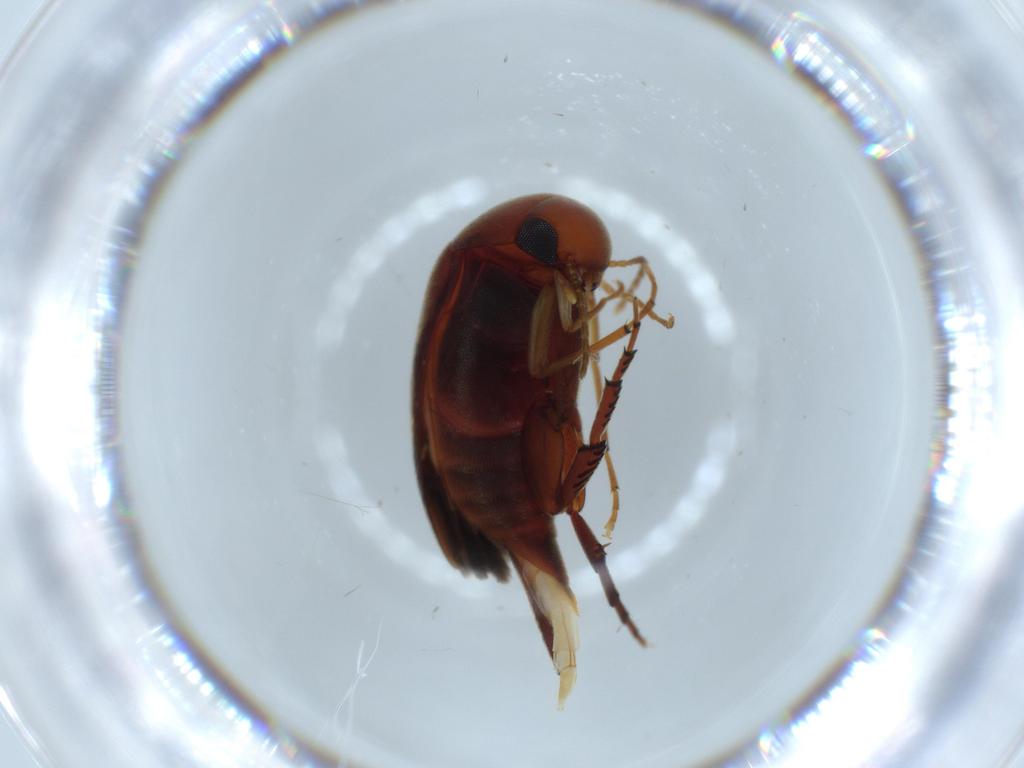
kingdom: Animalia
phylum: Arthropoda
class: Insecta
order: Coleoptera
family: Mordellidae
